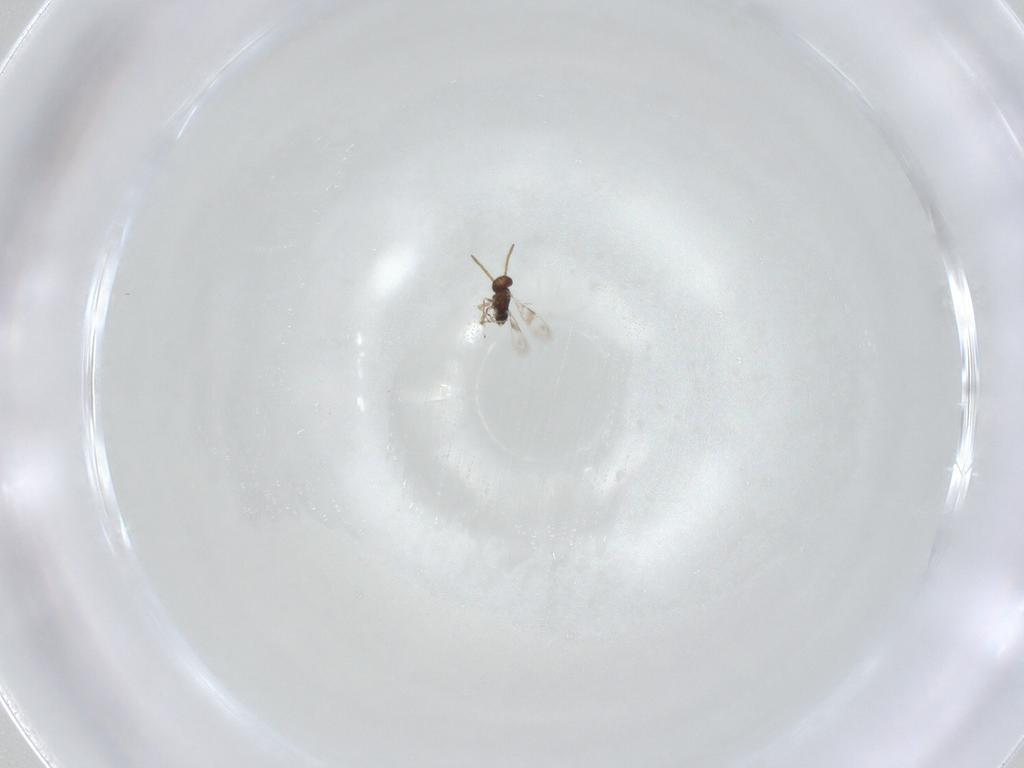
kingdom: Animalia
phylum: Arthropoda
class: Insecta
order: Hymenoptera
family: Azotidae
